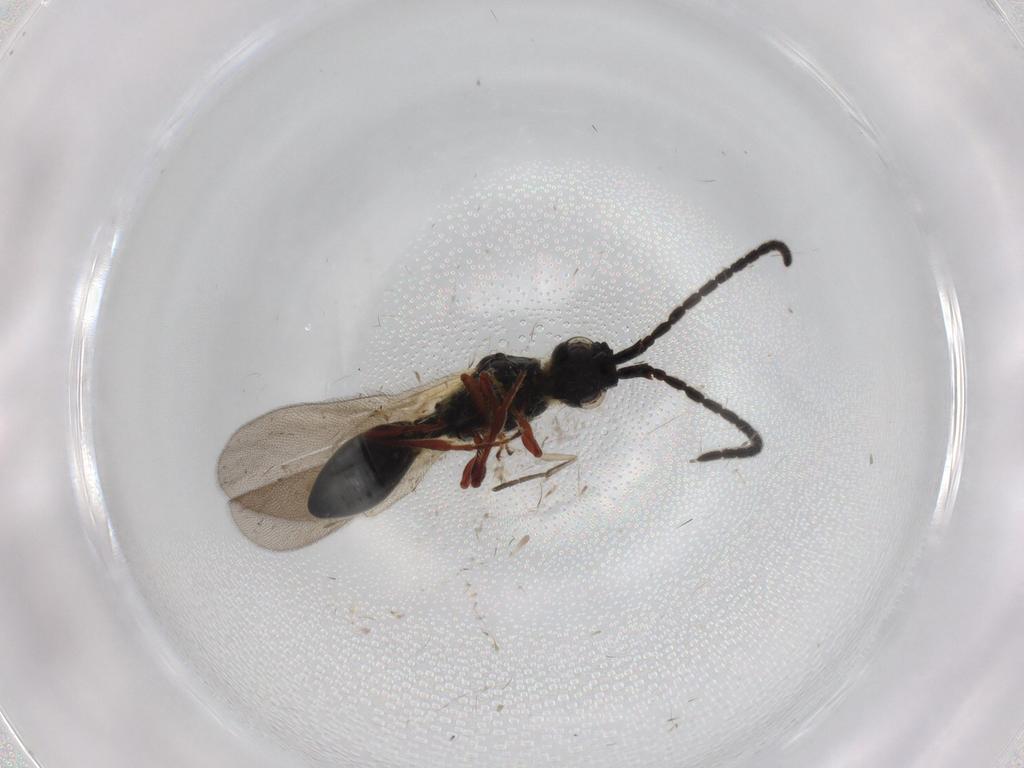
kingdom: Animalia
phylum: Arthropoda
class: Insecta
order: Hymenoptera
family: Diapriidae
